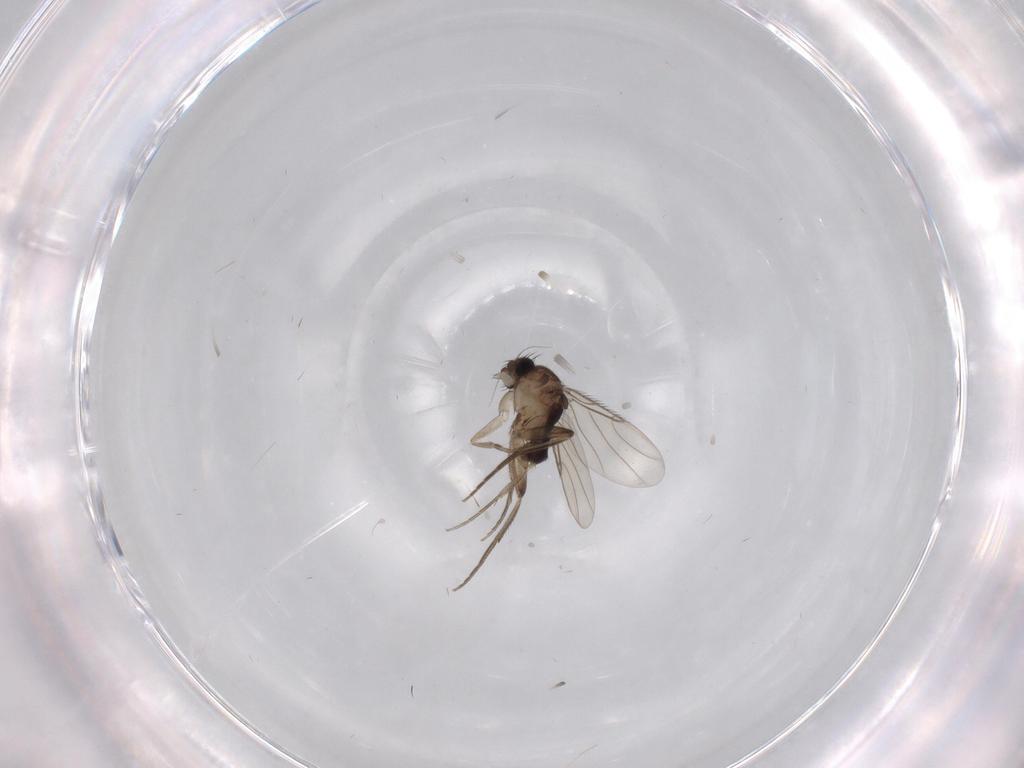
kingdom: Animalia
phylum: Arthropoda
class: Insecta
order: Diptera
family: Phoridae
